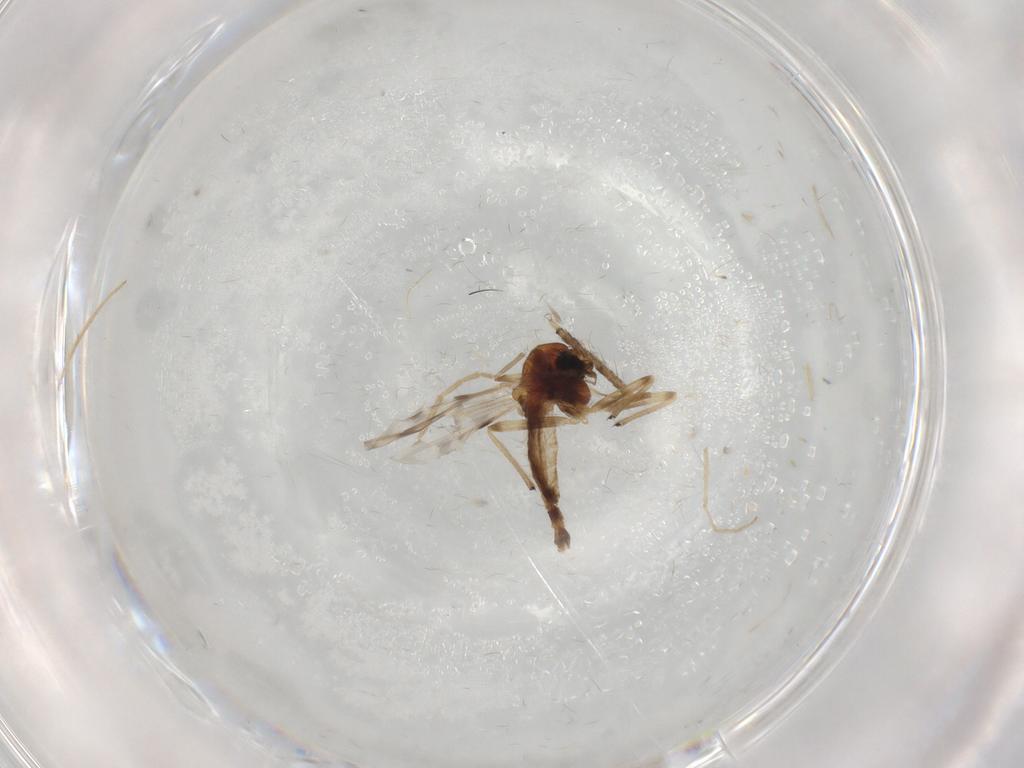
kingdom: Animalia
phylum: Arthropoda
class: Insecta
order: Diptera
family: Chironomidae
